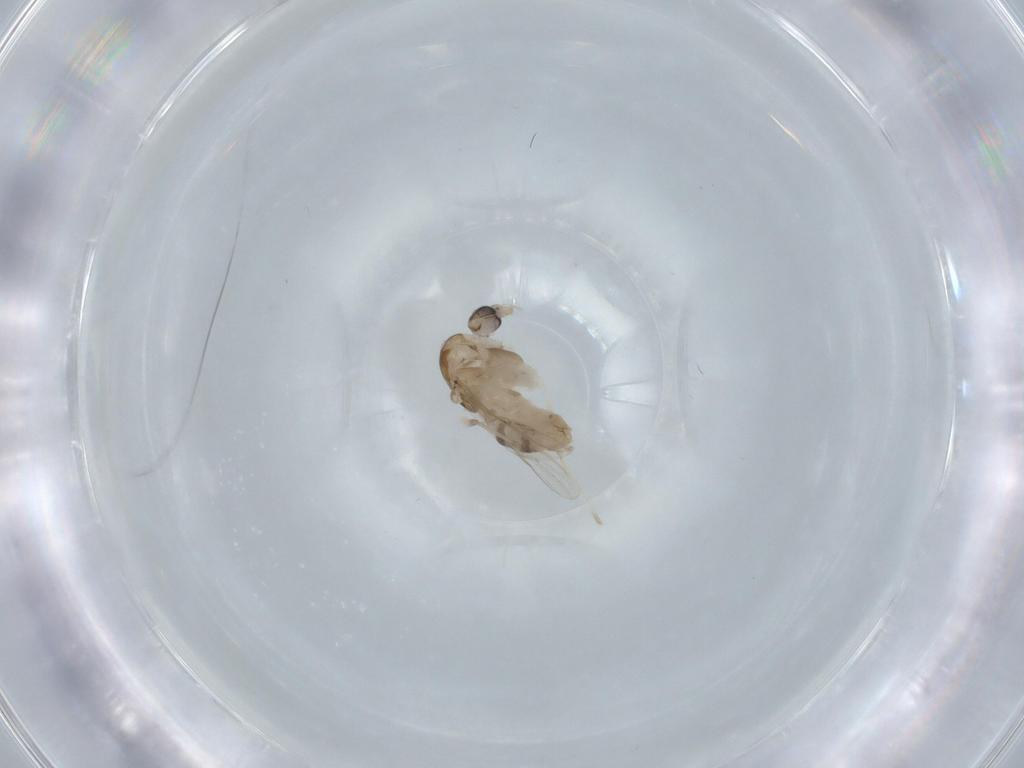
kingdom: Animalia
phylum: Arthropoda
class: Insecta
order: Diptera
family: Chironomidae
